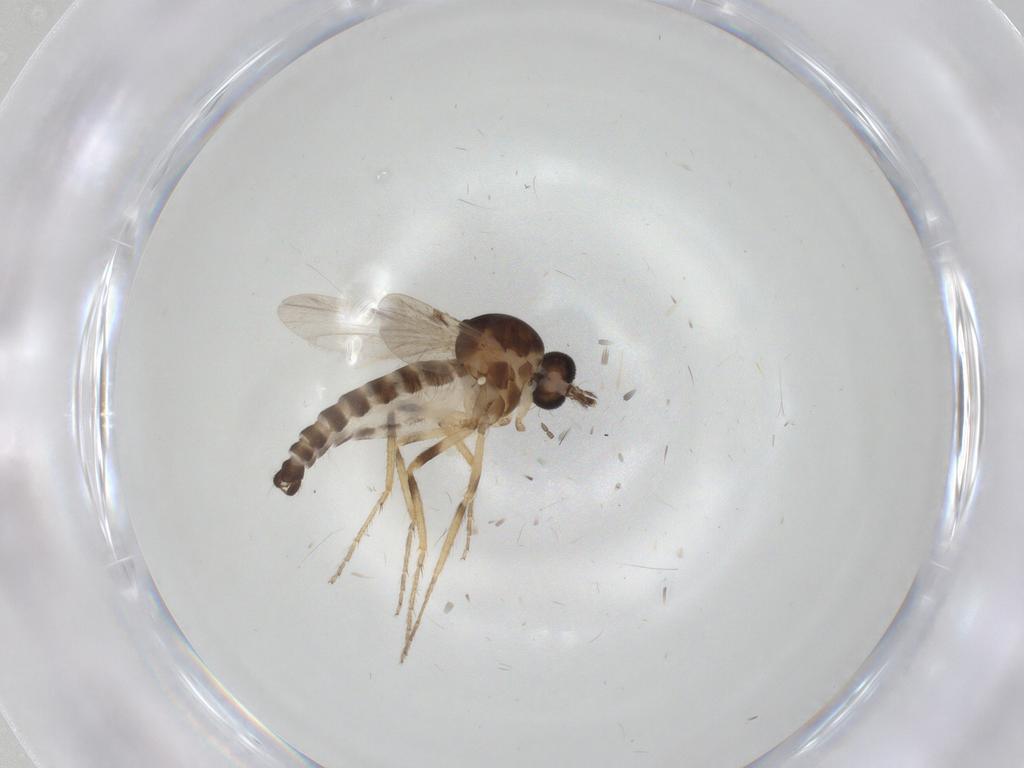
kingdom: Animalia
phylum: Arthropoda
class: Insecta
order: Diptera
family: Ceratopogonidae
